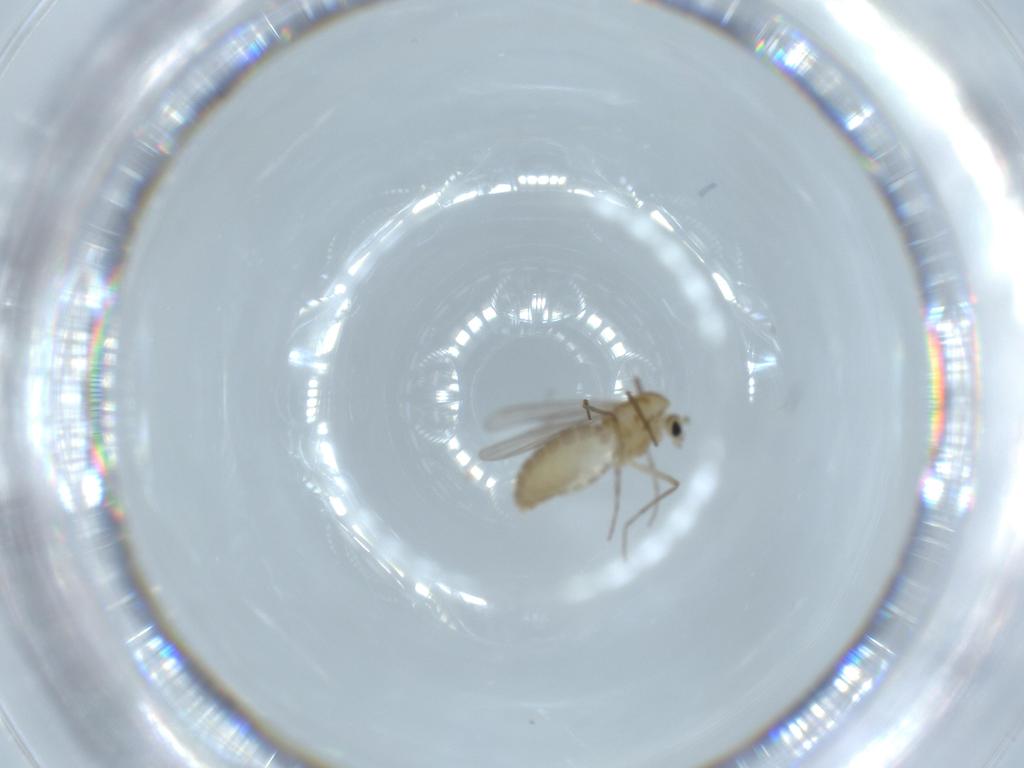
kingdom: Animalia
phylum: Arthropoda
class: Insecta
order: Diptera
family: Chironomidae
